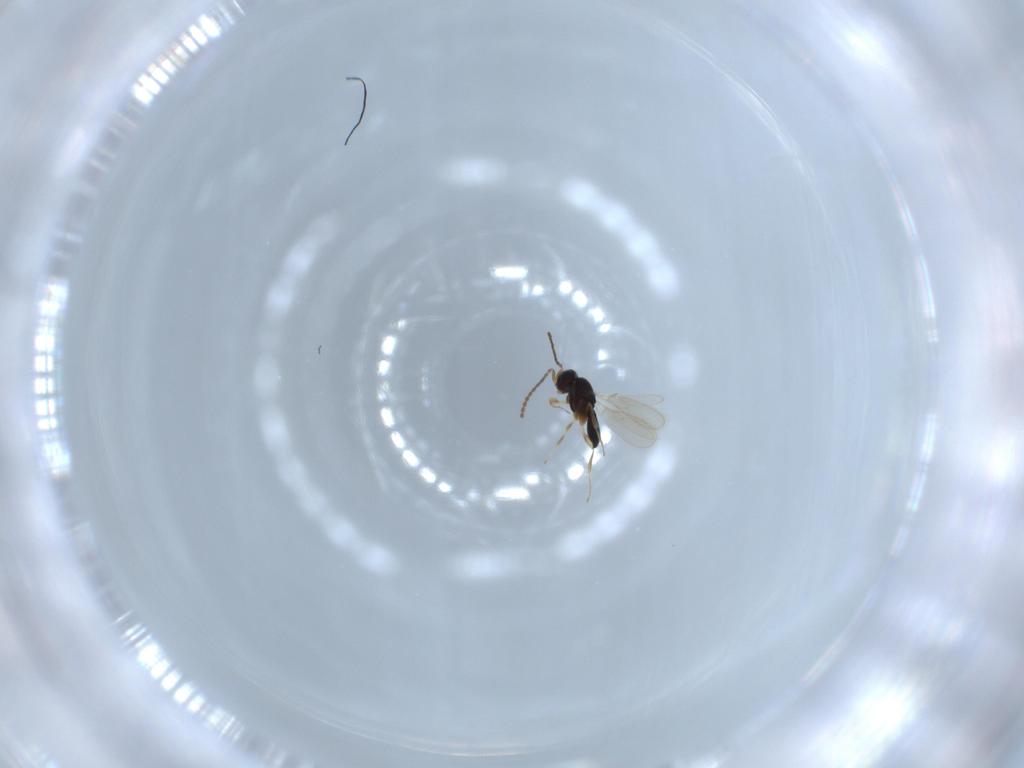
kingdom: Animalia
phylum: Arthropoda
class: Insecta
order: Hymenoptera
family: Scelionidae
